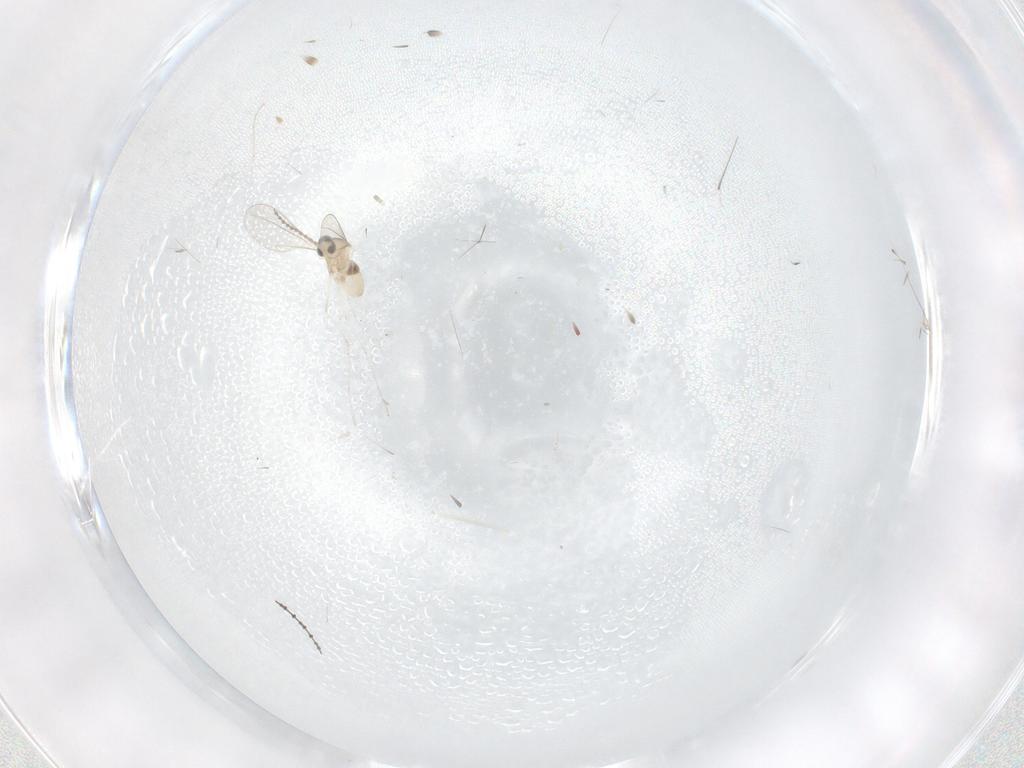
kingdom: Animalia
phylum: Arthropoda
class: Insecta
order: Diptera
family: Cecidomyiidae
